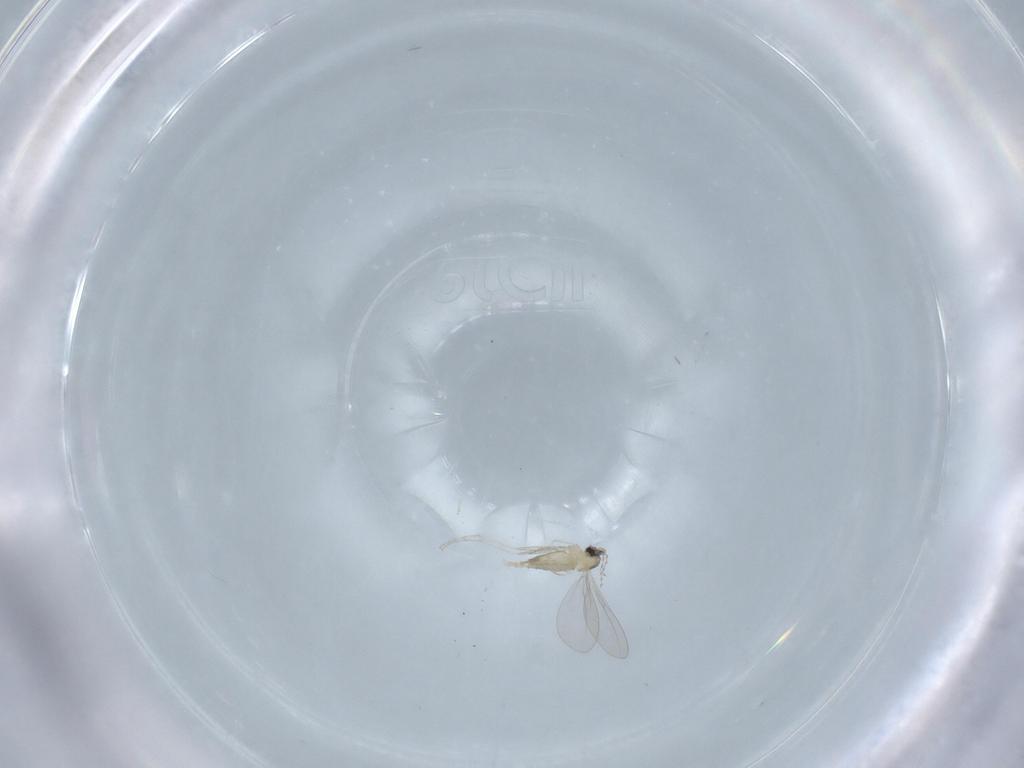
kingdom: Animalia
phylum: Arthropoda
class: Insecta
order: Diptera
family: Cecidomyiidae
